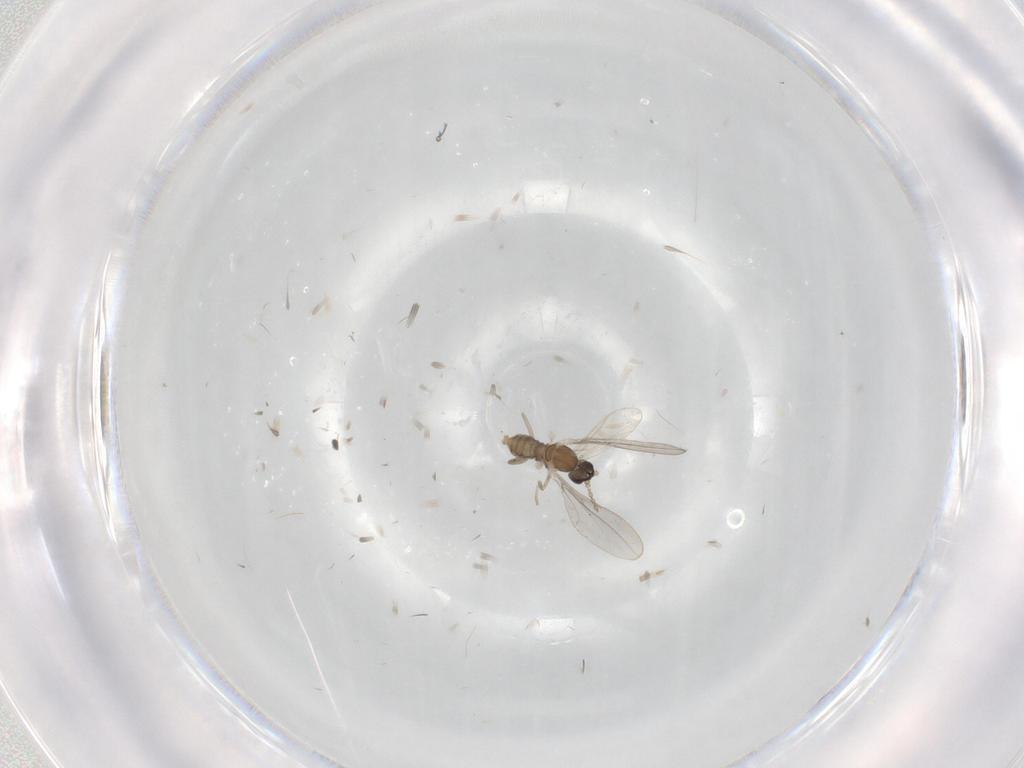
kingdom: Animalia
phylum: Arthropoda
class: Insecta
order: Diptera
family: Cecidomyiidae
